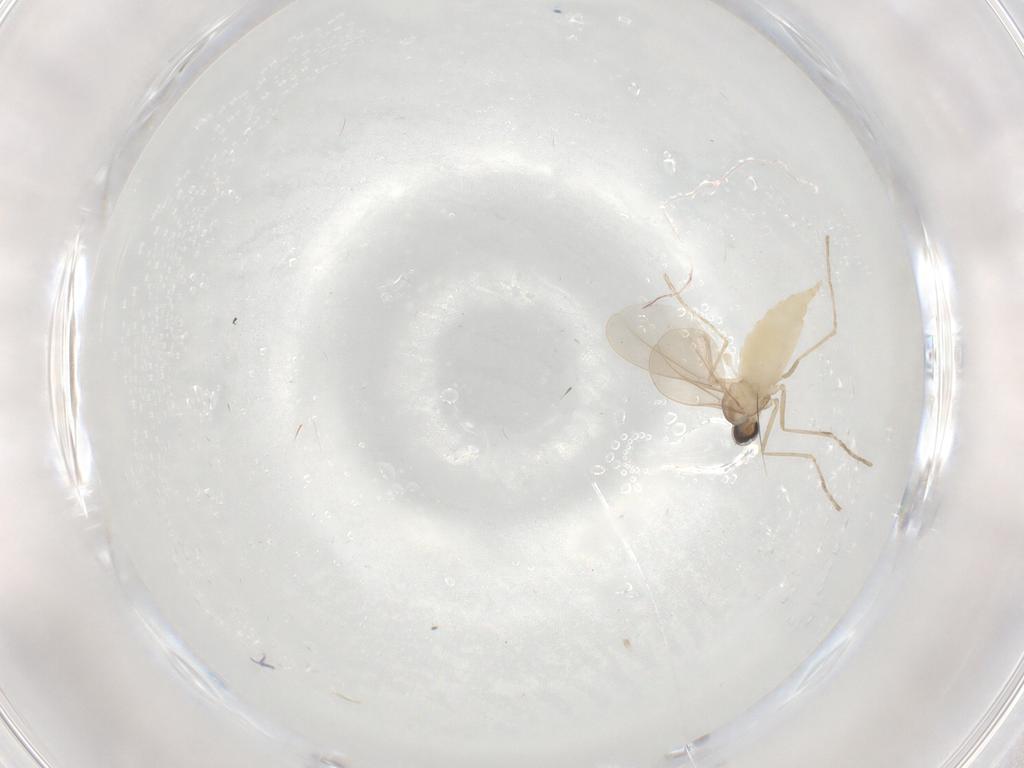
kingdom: Animalia
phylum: Arthropoda
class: Insecta
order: Diptera
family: Cecidomyiidae
